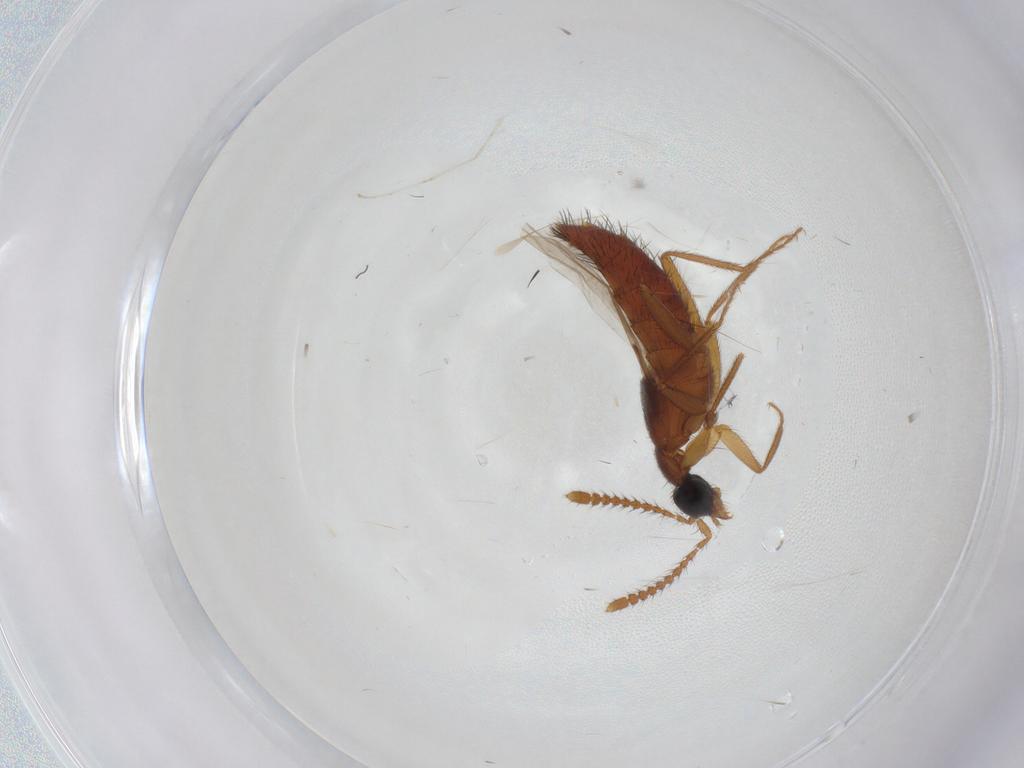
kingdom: Animalia
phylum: Arthropoda
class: Insecta
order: Coleoptera
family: Staphylinidae
